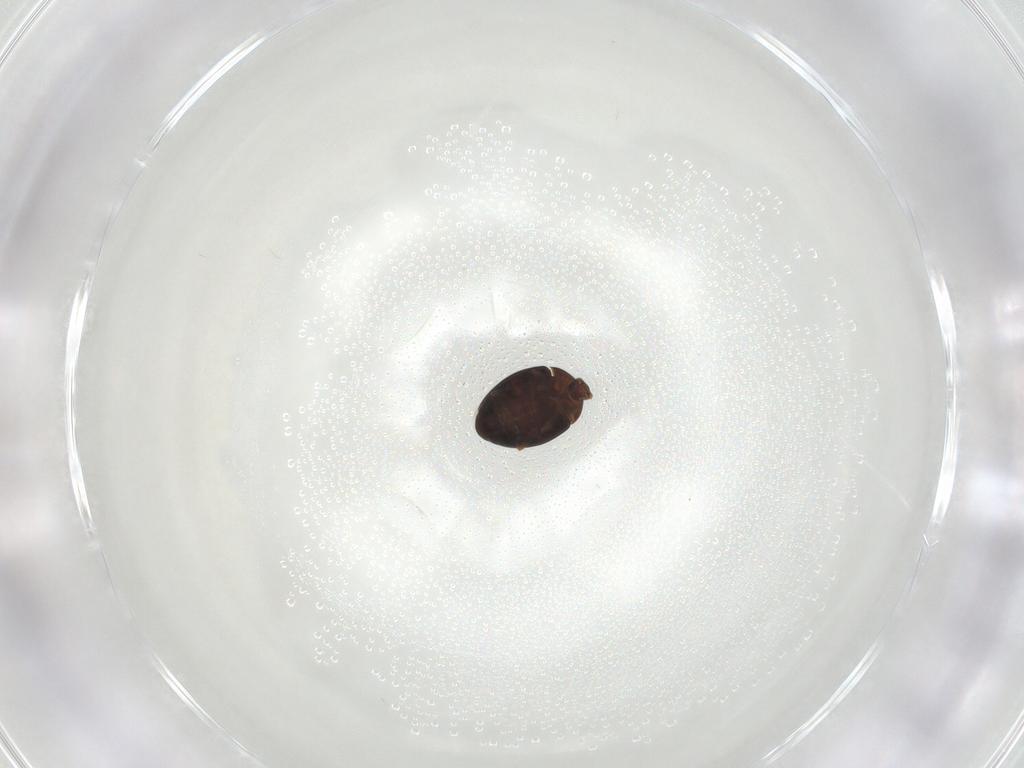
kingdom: Animalia
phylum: Arthropoda
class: Insecta
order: Coleoptera
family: Corylophidae
